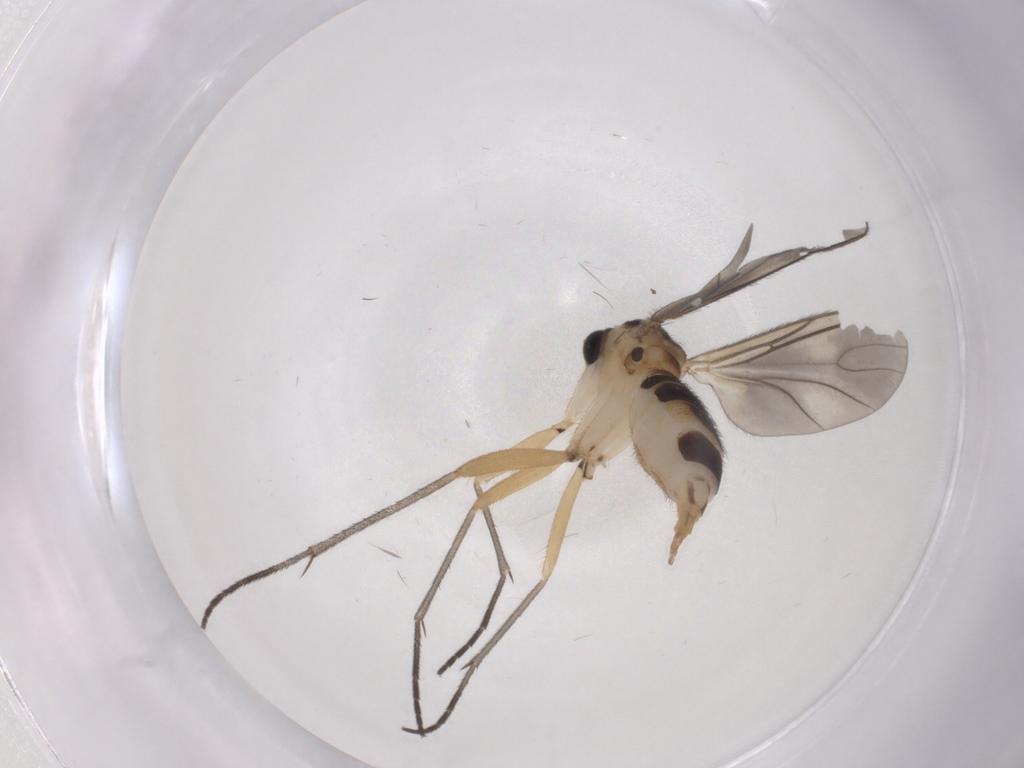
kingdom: Animalia
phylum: Arthropoda
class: Insecta
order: Diptera
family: Sciaridae
